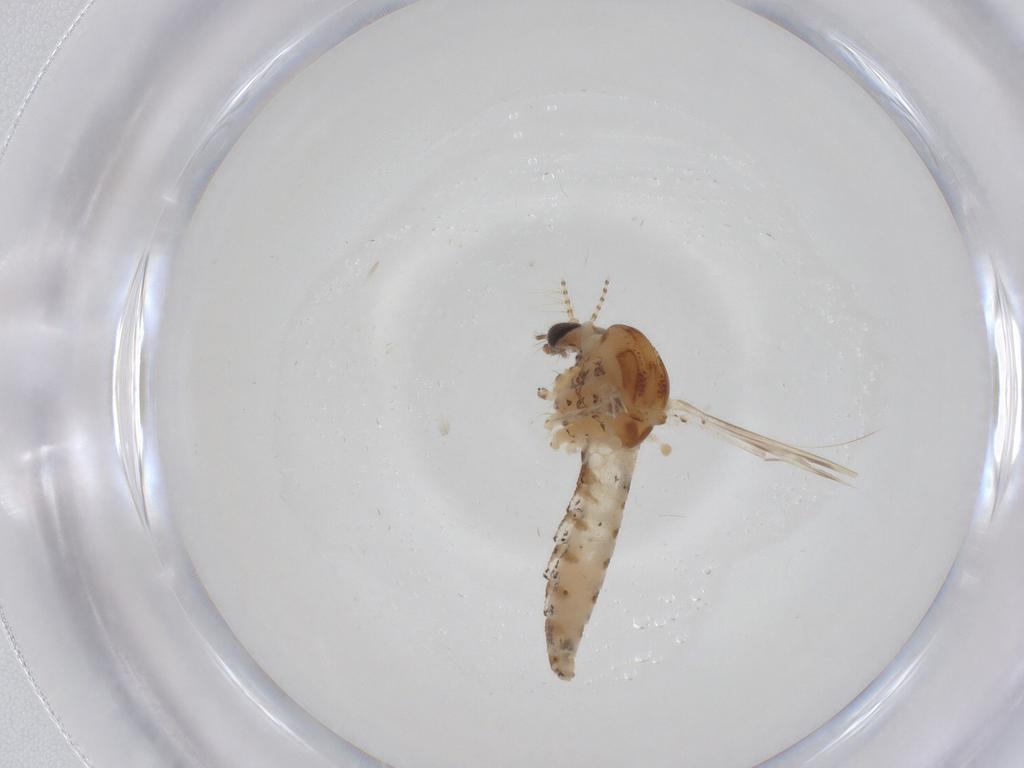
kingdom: Animalia
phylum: Arthropoda
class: Insecta
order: Diptera
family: Ceratopogonidae
